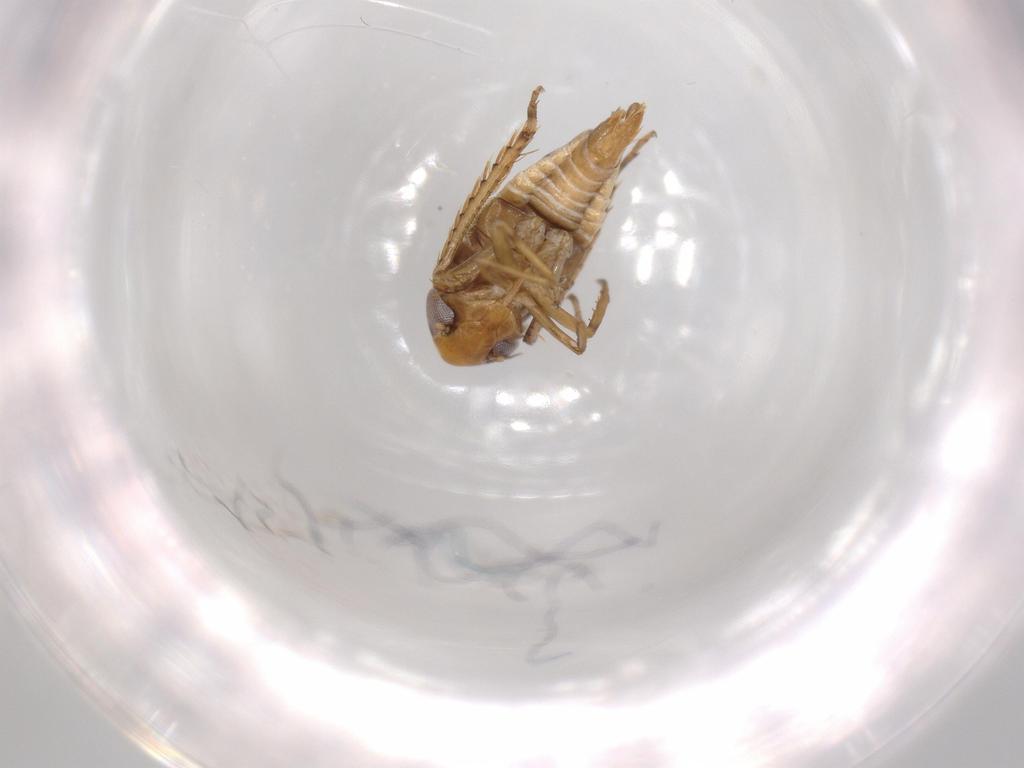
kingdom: Animalia
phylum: Arthropoda
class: Insecta
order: Hemiptera
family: Cicadellidae
